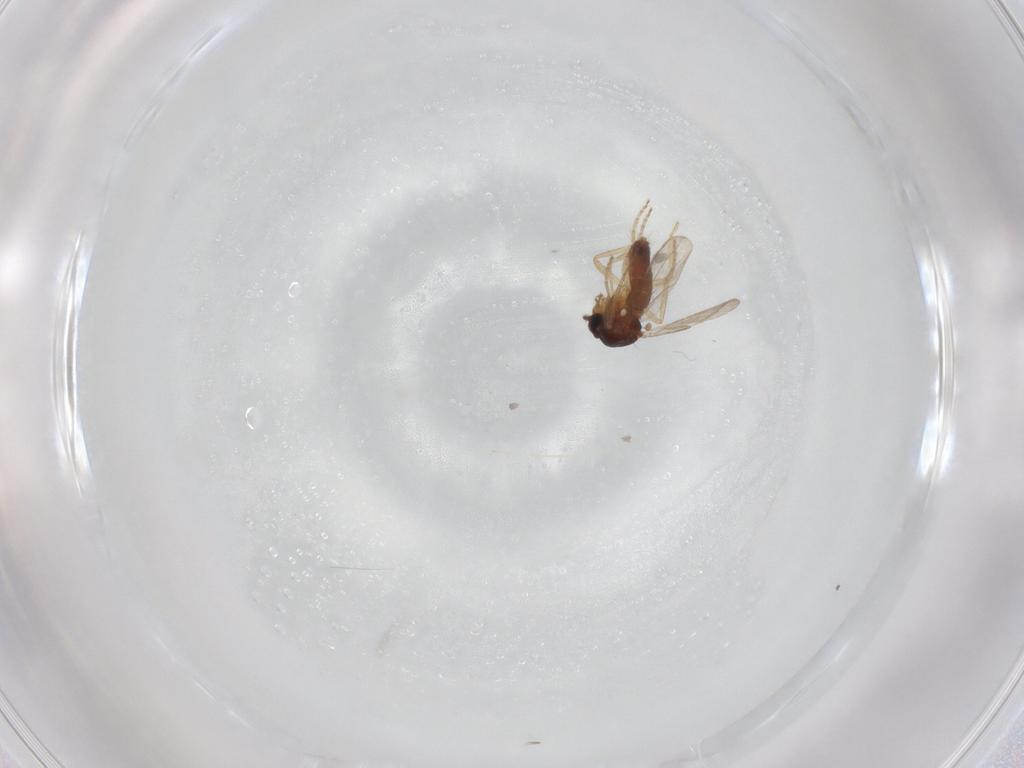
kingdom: Animalia
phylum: Arthropoda
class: Insecta
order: Diptera
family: Ceratopogonidae
